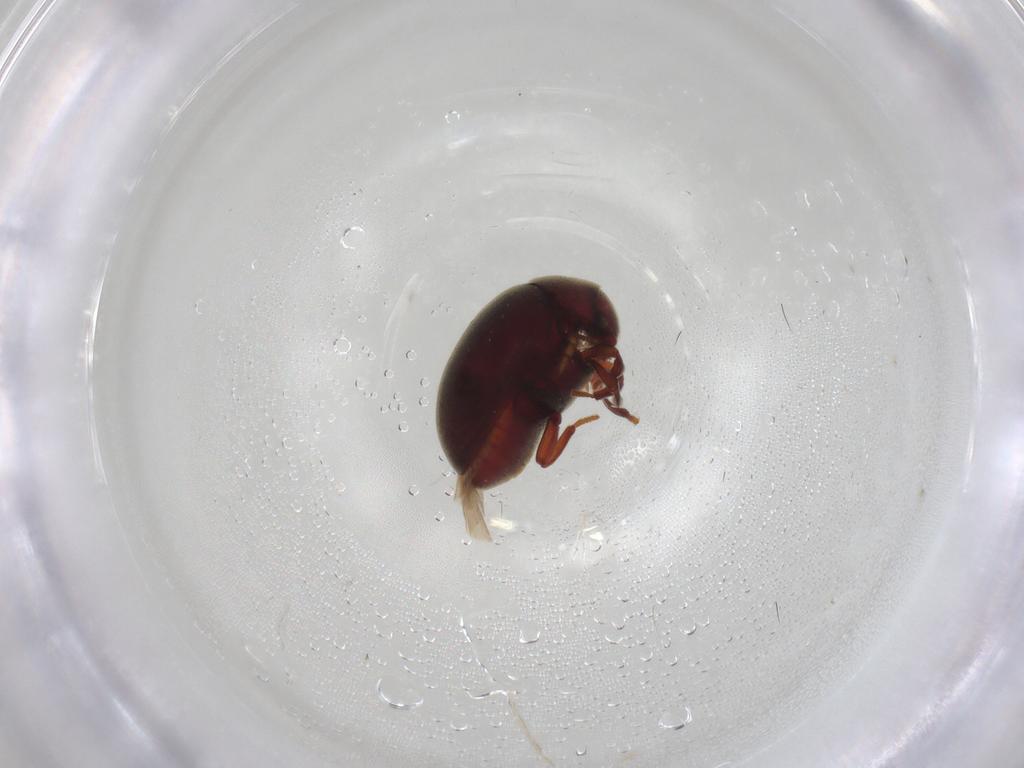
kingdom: Animalia
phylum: Arthropoda
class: Insecta
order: Coleoptera
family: Ptinidae
